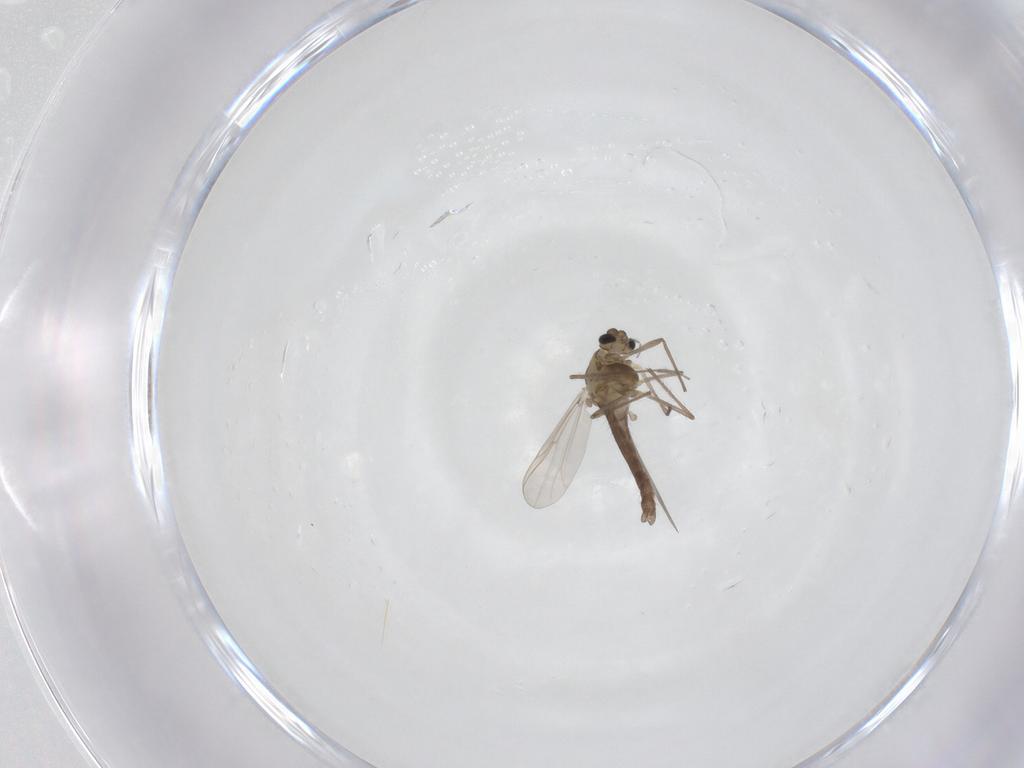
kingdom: Animalia
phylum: Arthropoda
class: Insecta
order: Diptera
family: Chironomidae
